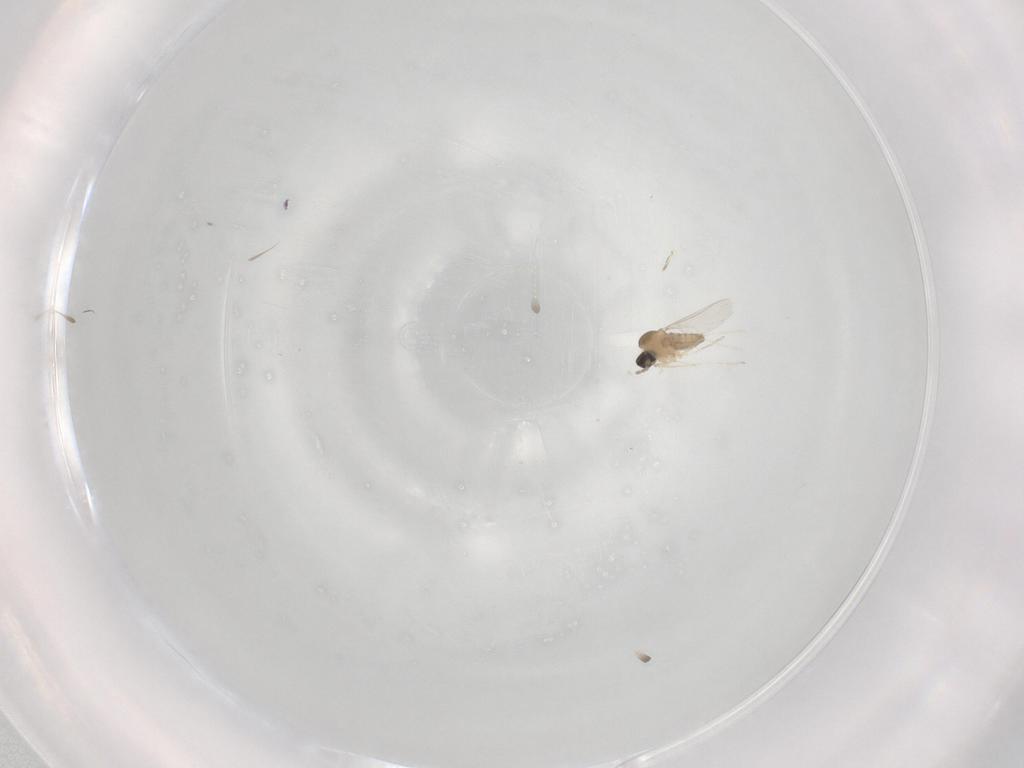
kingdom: Animalia
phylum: Arthropoda
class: Insecta
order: Diptera
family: Cecidomyiidae
